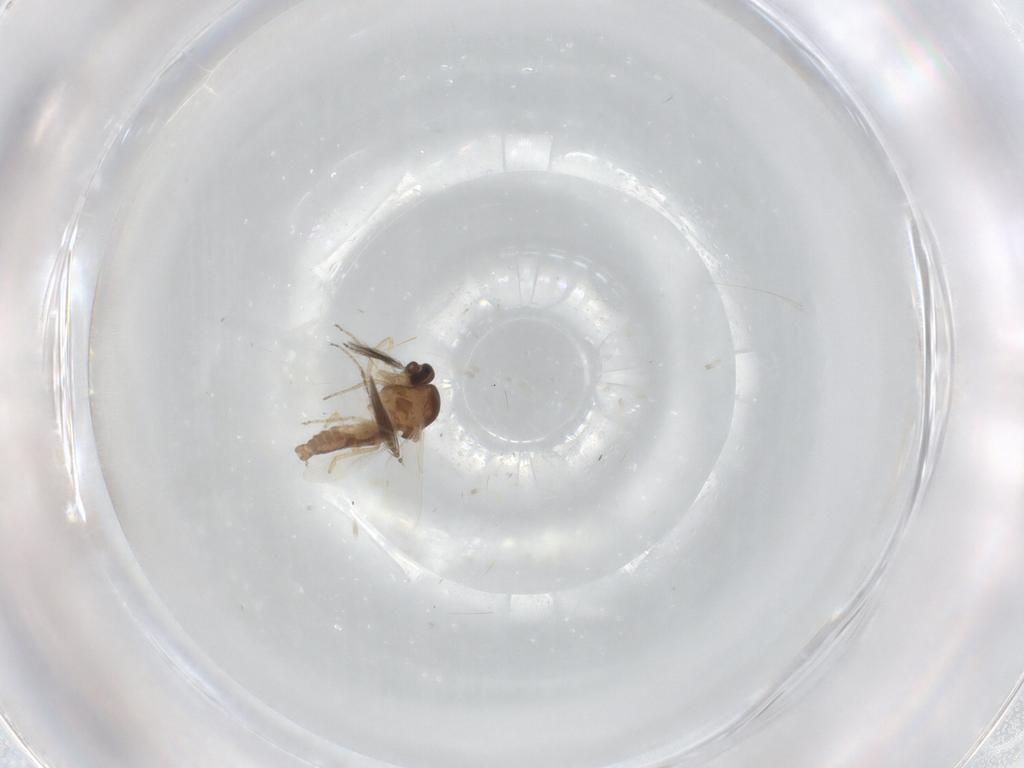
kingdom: Animalia
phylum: Arthropoda
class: Insecta
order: Diptera
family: Ceratopogonidae
